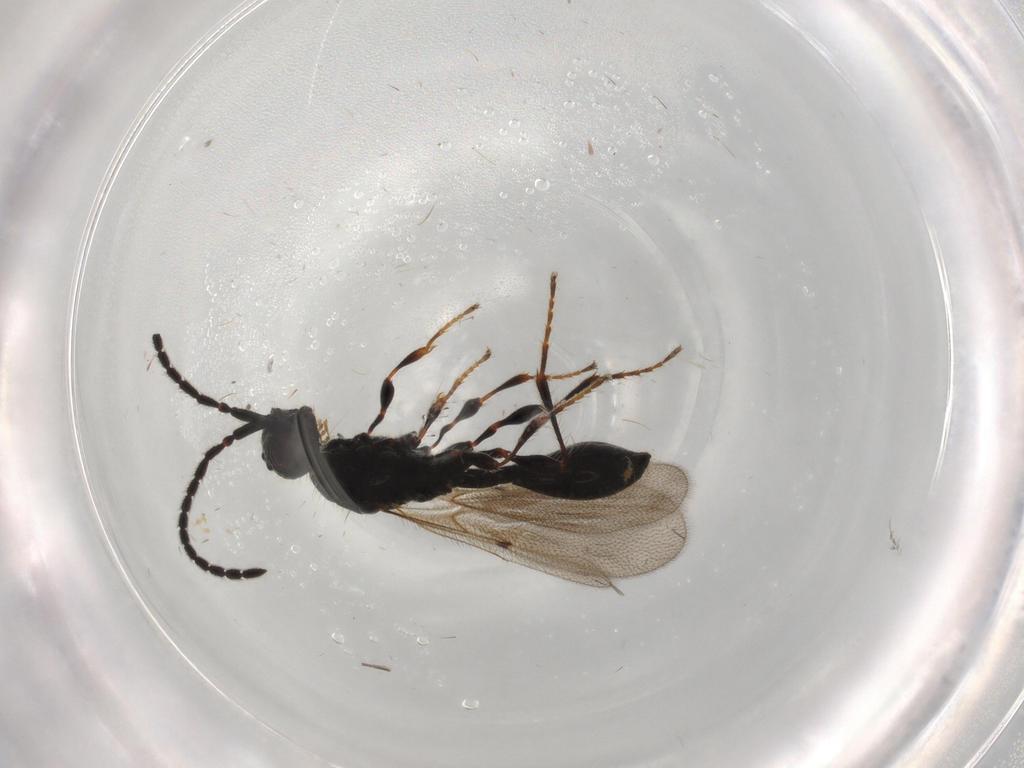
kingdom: Animalia
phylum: Arthropoda
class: Insecta
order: Hymenoptera
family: Diapriidae
